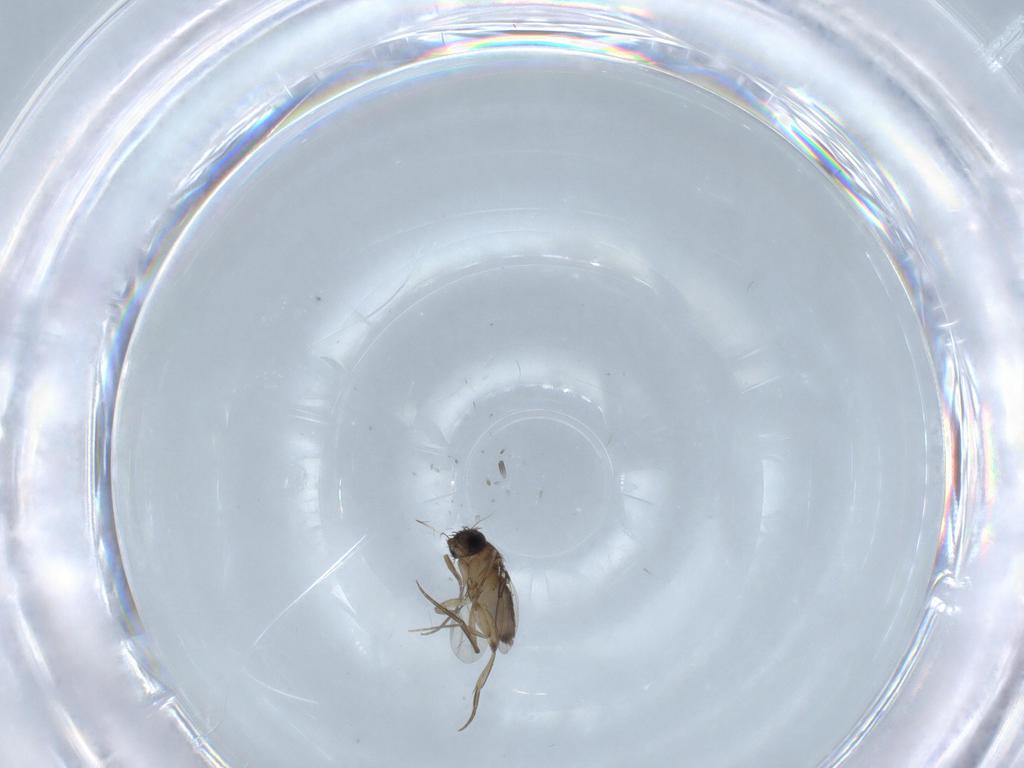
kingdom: Animalia
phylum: Arthropoda
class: Insecta
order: Diptera
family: Phoridae
